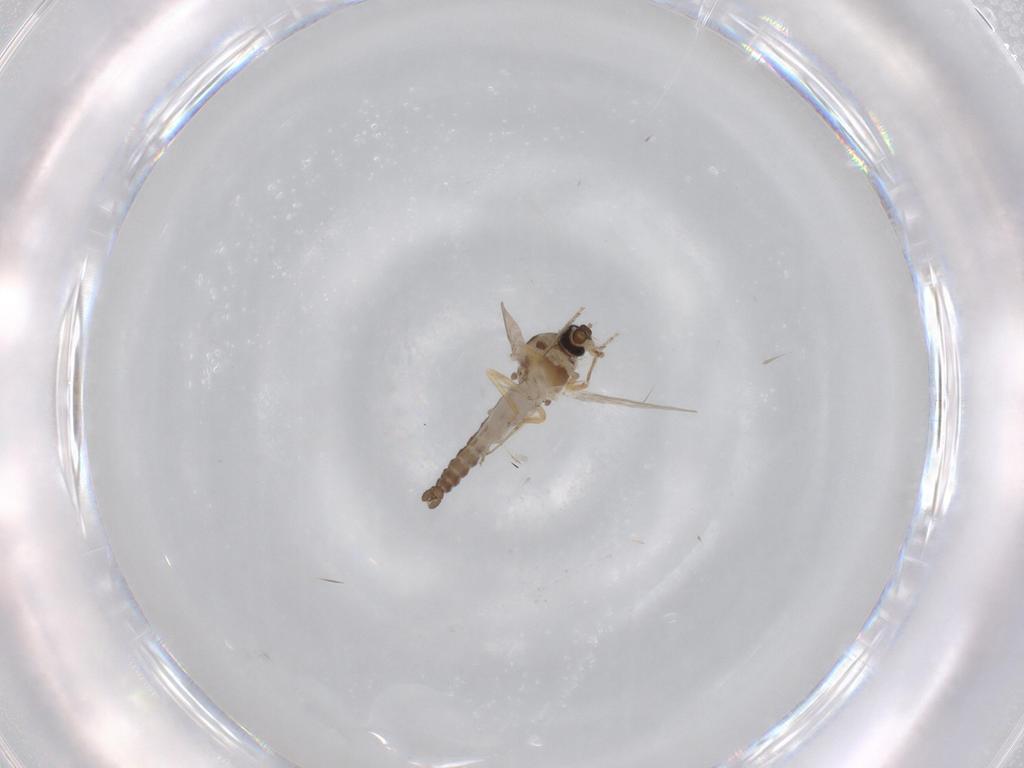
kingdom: Animalia
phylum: Arthropoda
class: Insecta
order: Diptera
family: Ceratopogonidae
